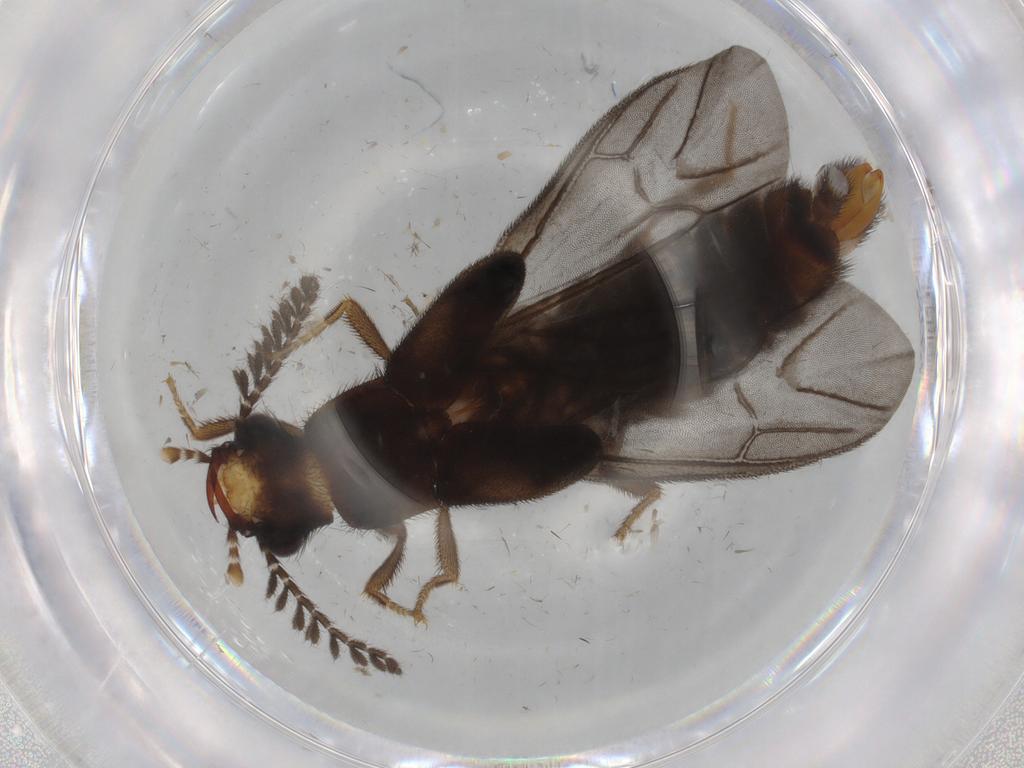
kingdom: Animalia
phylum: Arthropoda
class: Insecta
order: Coleoptera
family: Phengodidae
